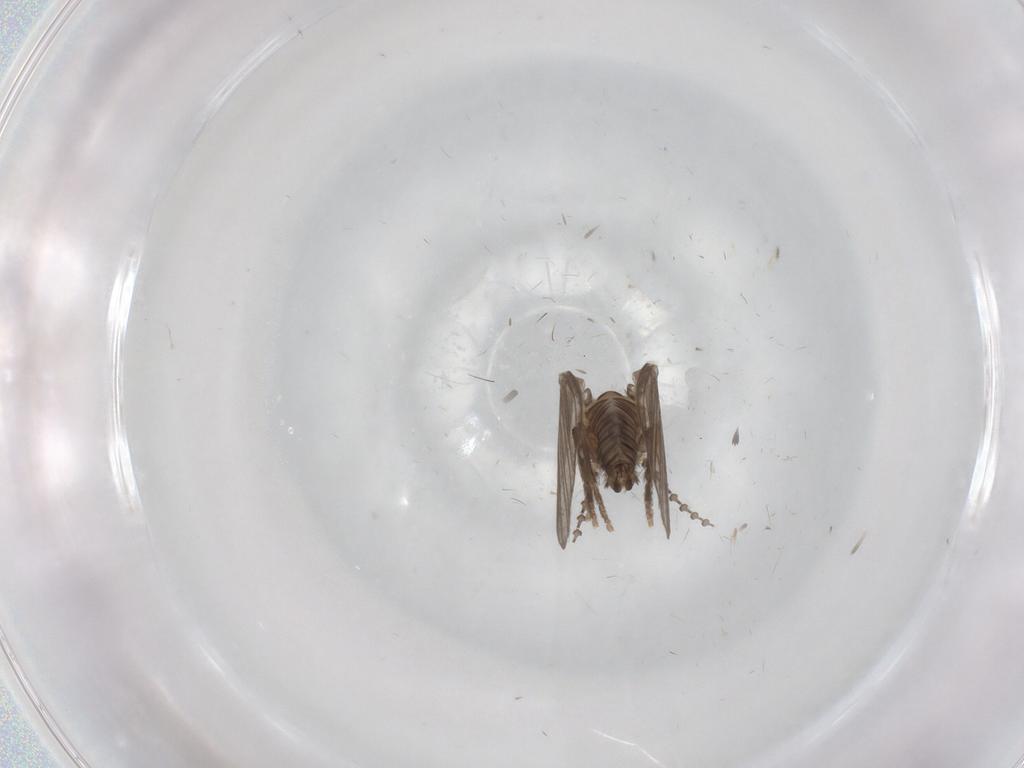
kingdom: Animalia
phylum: Arthropoda
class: Insecta
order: Diptera
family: Psychodidae
